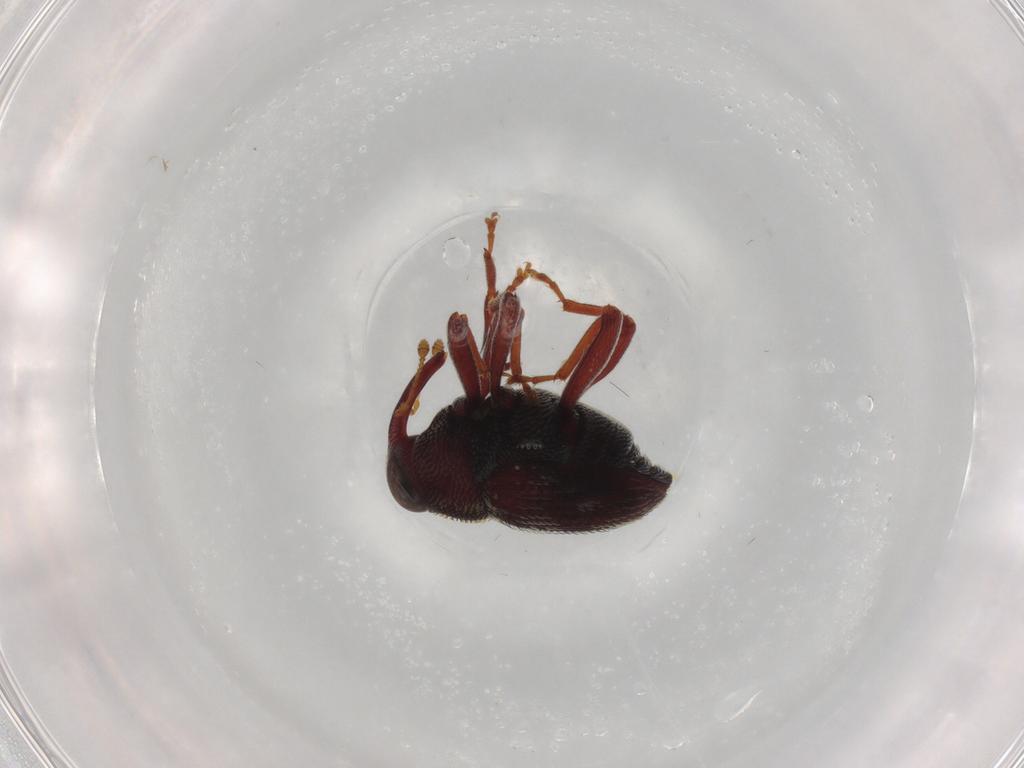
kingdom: Animalia
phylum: Arthropoda
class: Insecta
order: Coleoptera
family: Curculionidae
